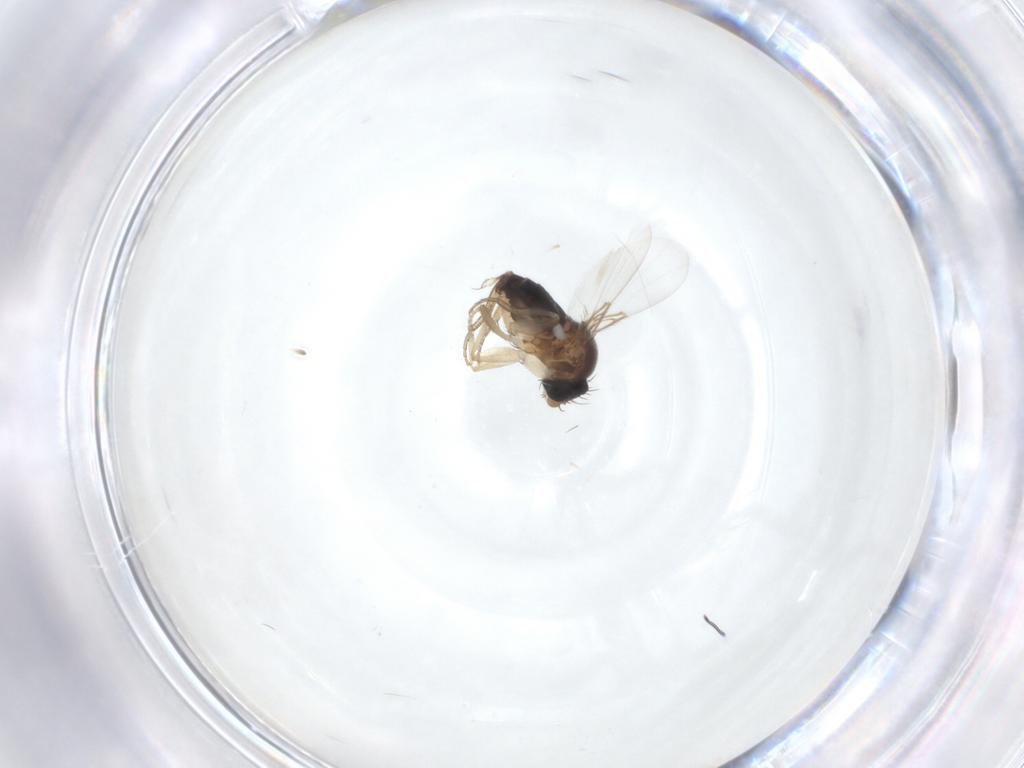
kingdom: Animalia
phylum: Arthropoda
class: Insecta
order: Diptera
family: Phoridae
